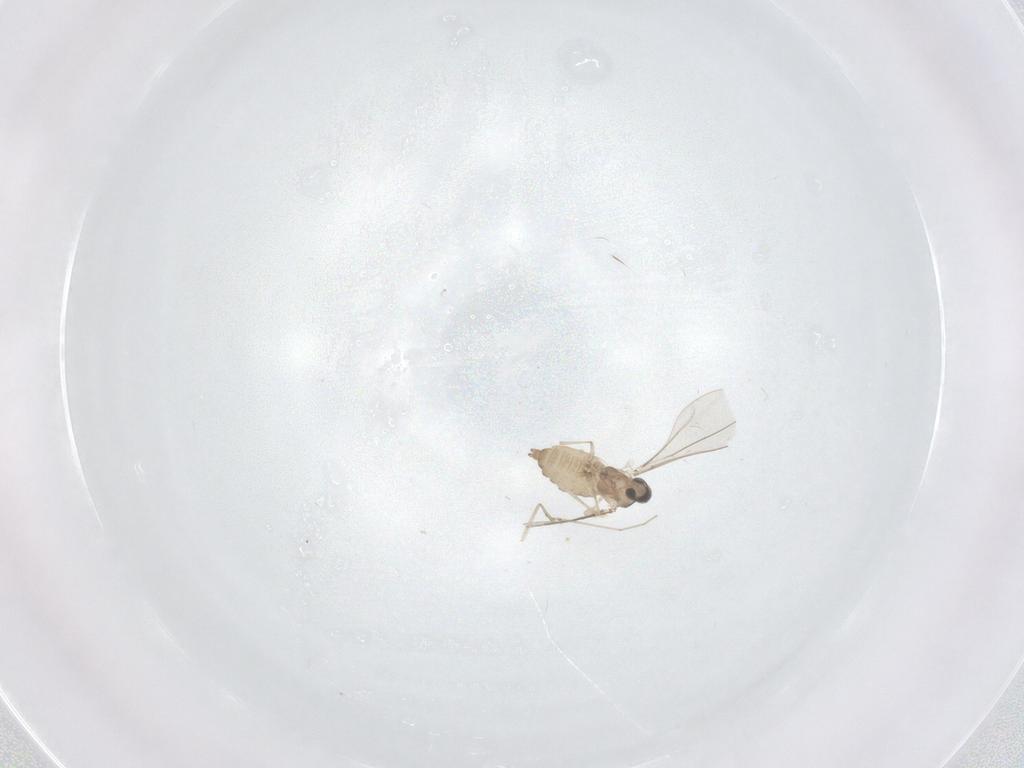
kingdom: Animalia
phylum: Arthropoda
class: Insecta
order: Diptera
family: Cecidomyiidae
